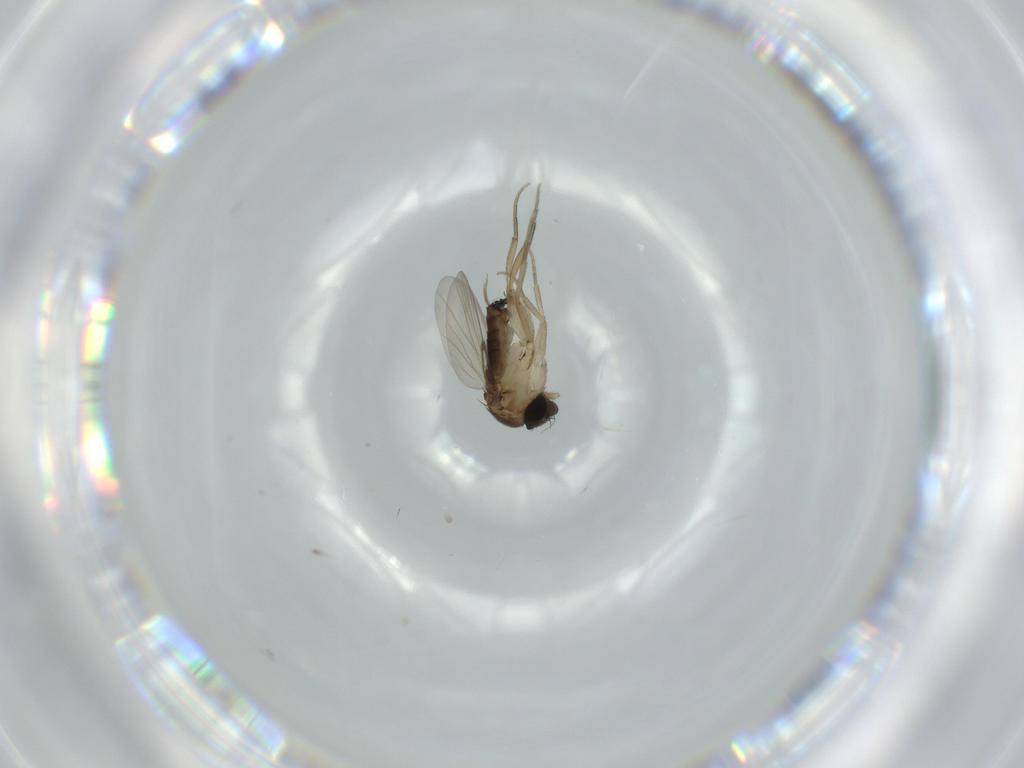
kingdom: Animalia
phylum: Arthropoda
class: Insecta
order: Diptera
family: Phoridae
